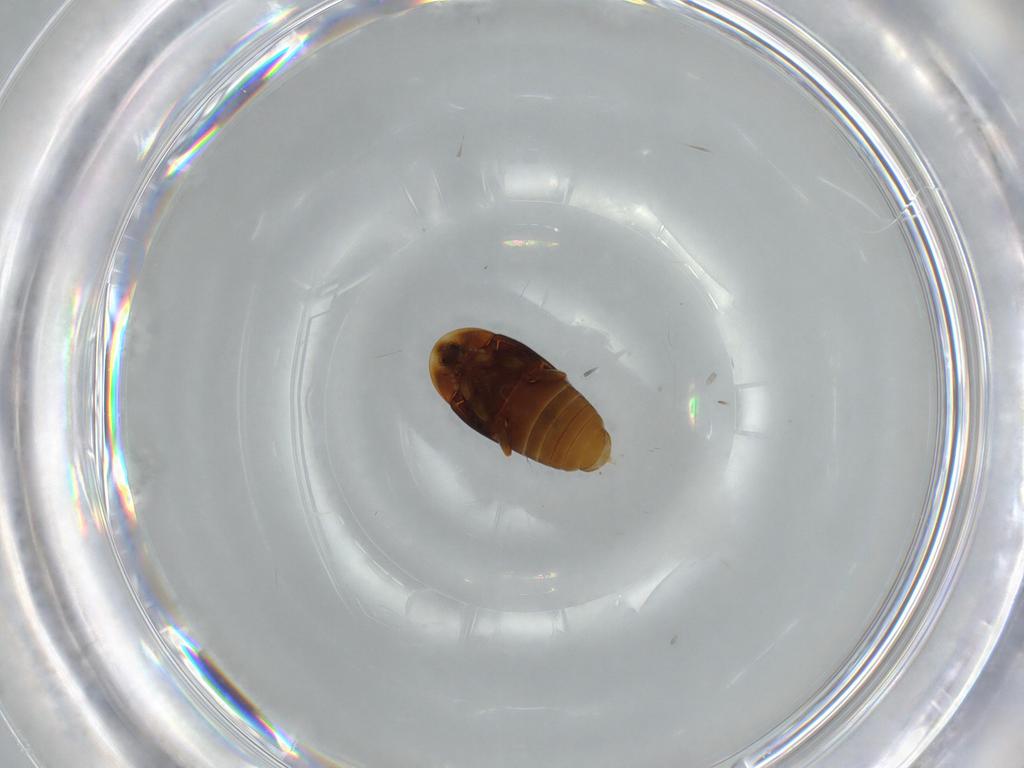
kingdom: Animalia
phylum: Arthropoda
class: Insecta
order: Coleoptera
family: Corylophidae
